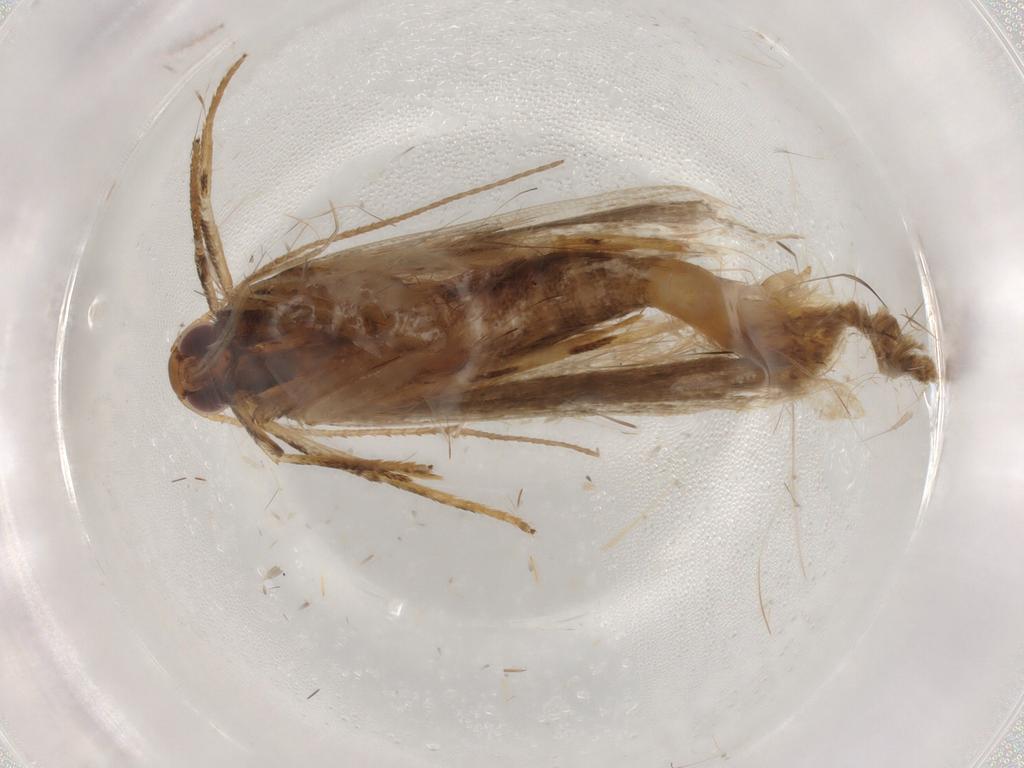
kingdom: Animalia
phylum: Arthropoda
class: Insecta
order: Lepidoptera
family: Gelechiidae
